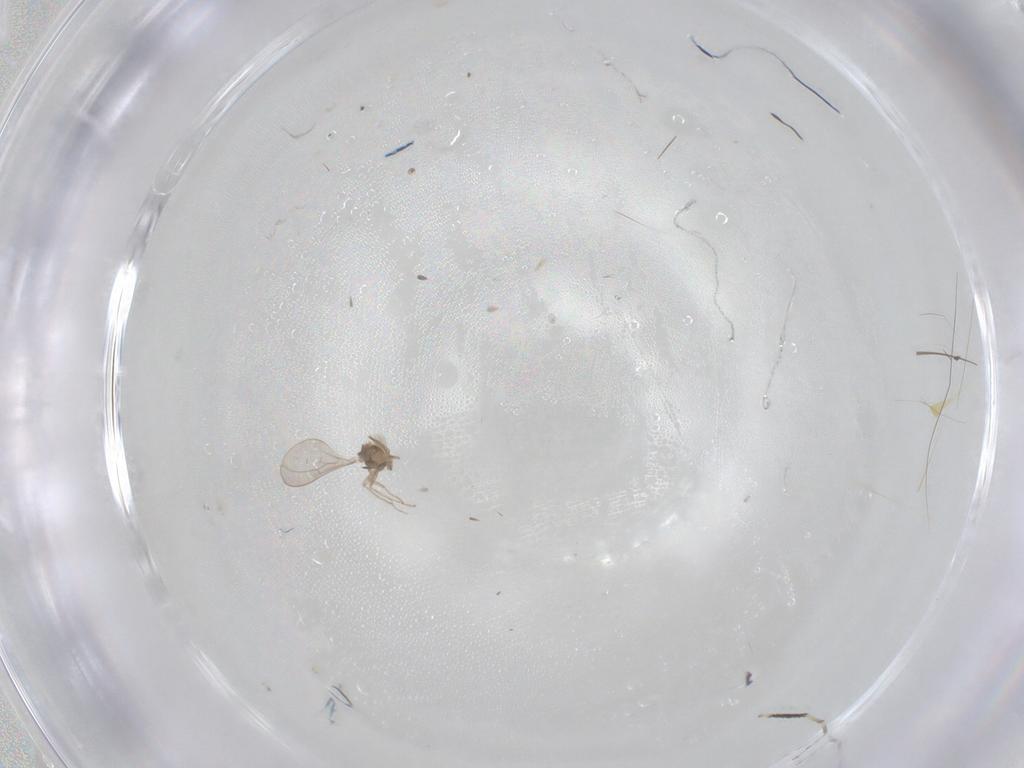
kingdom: Animalia
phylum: Arthropoda
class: Insecta
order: Diptera
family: Cecidomyiidae
